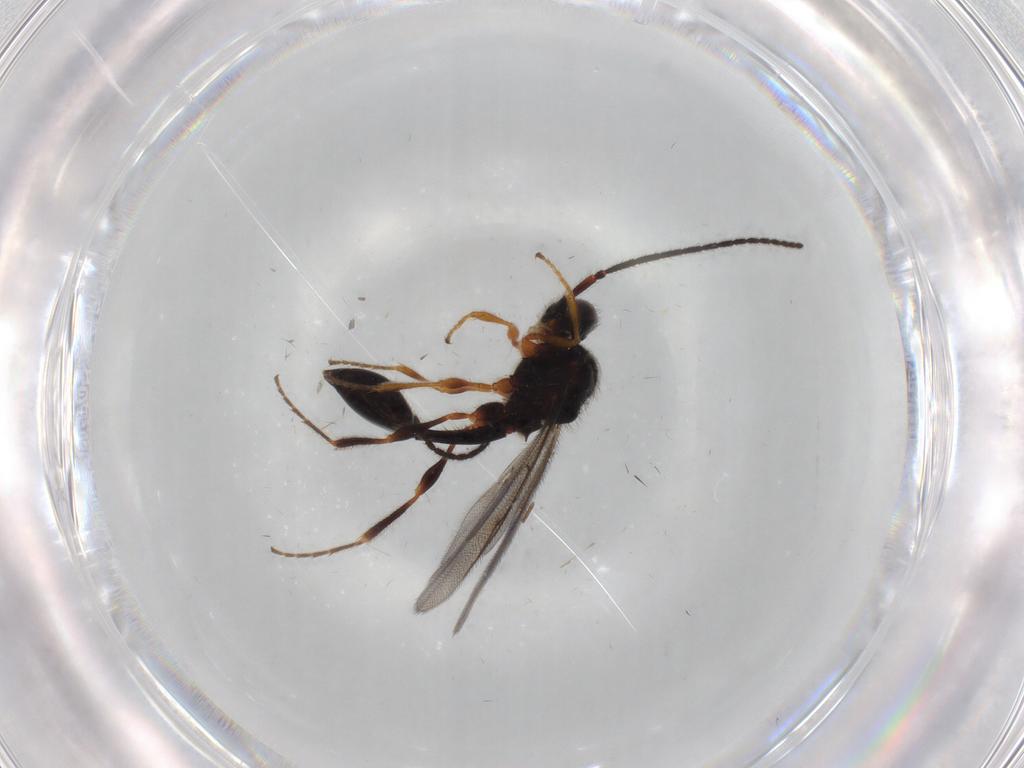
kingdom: Animalia
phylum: Arthropoda
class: Insecta
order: Hymenoptera
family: Diapriidae
